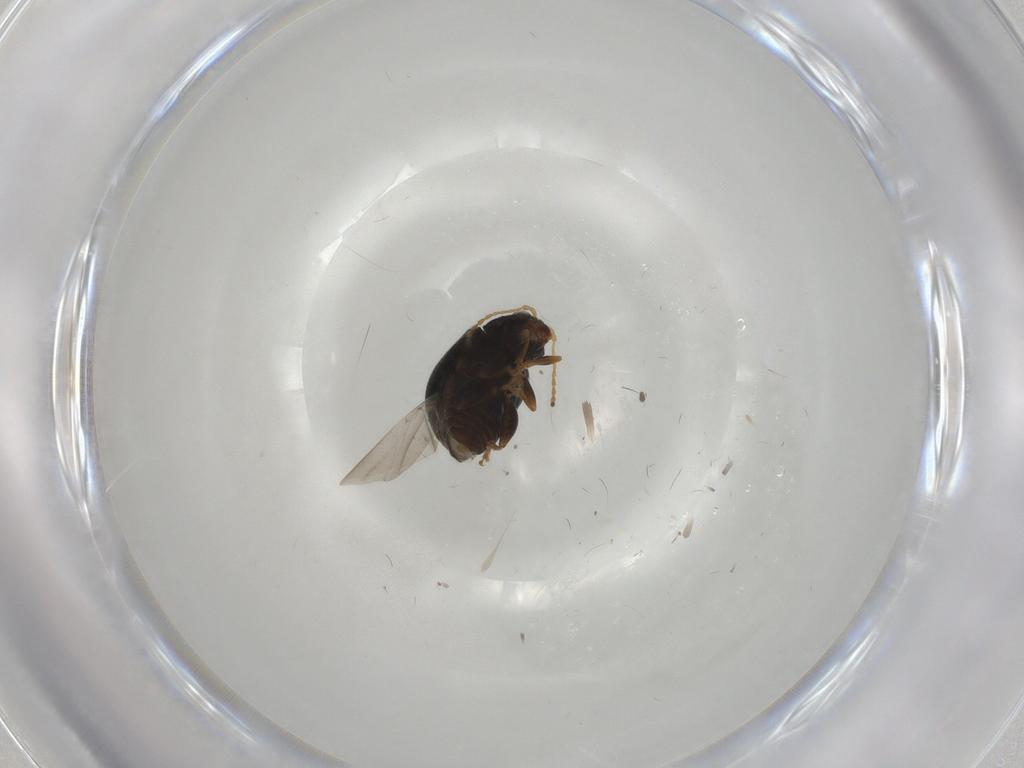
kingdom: Animalia
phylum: Arthropoda
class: Insecta
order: Coleoptera
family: Chrysomelidae
